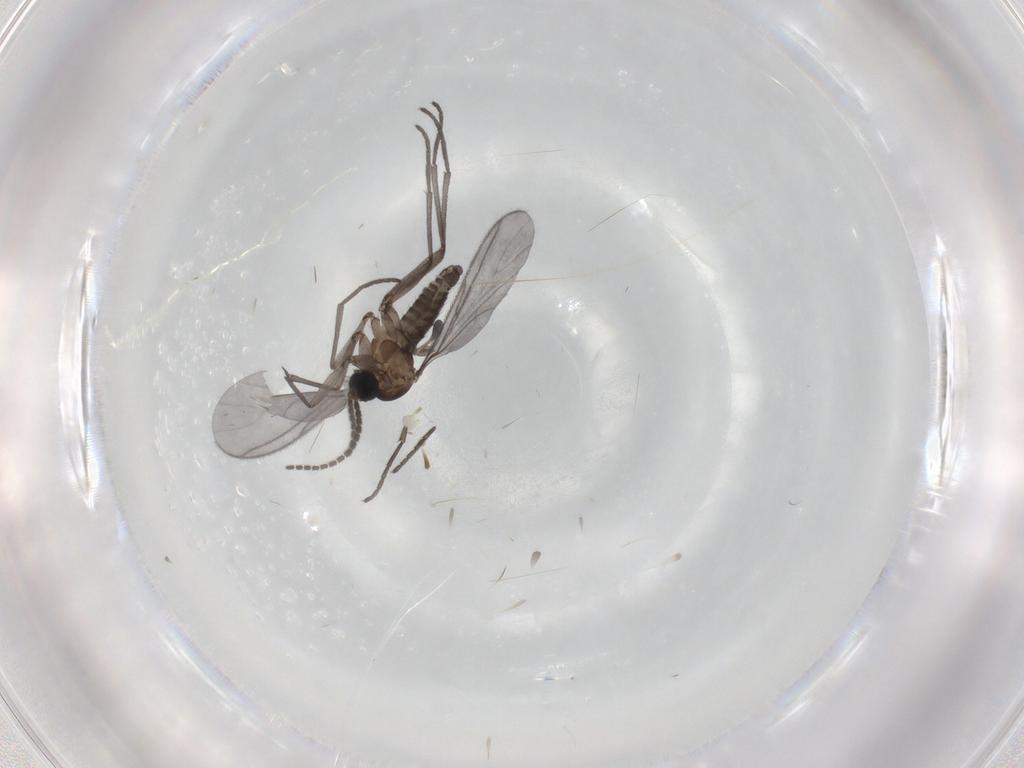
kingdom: Animalia
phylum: Arthropoda
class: Insecta
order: Diptera
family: Sciaridae
